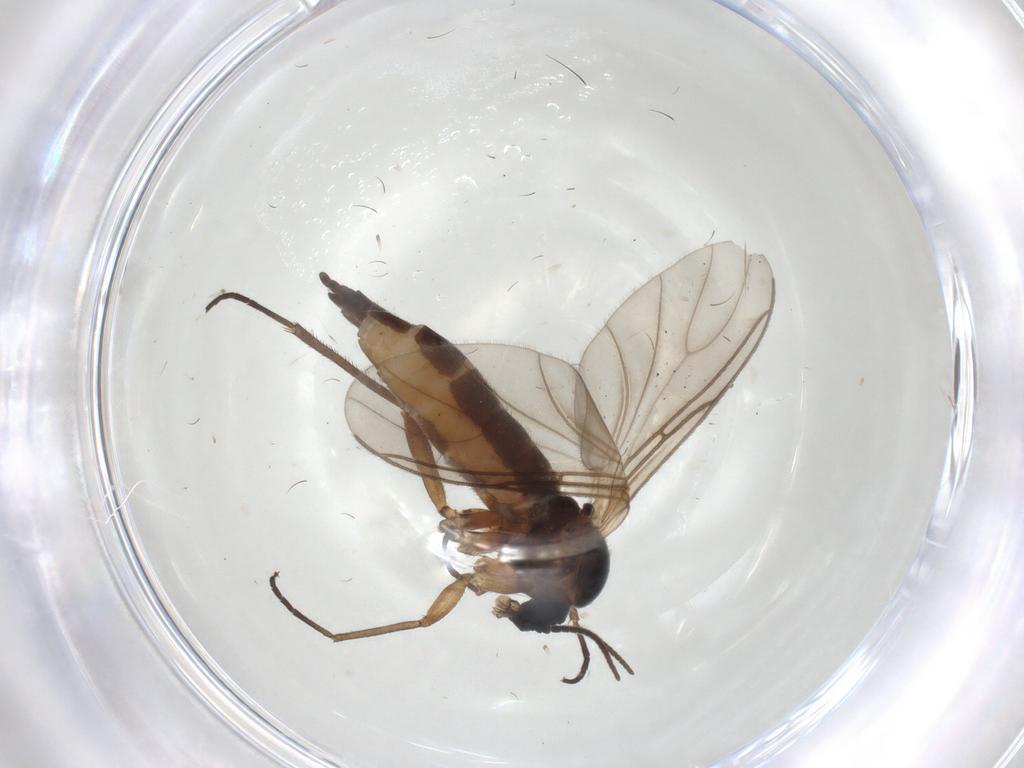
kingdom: Animalia
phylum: Arthropoda
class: Insecta
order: Diptera
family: Sciaridae
